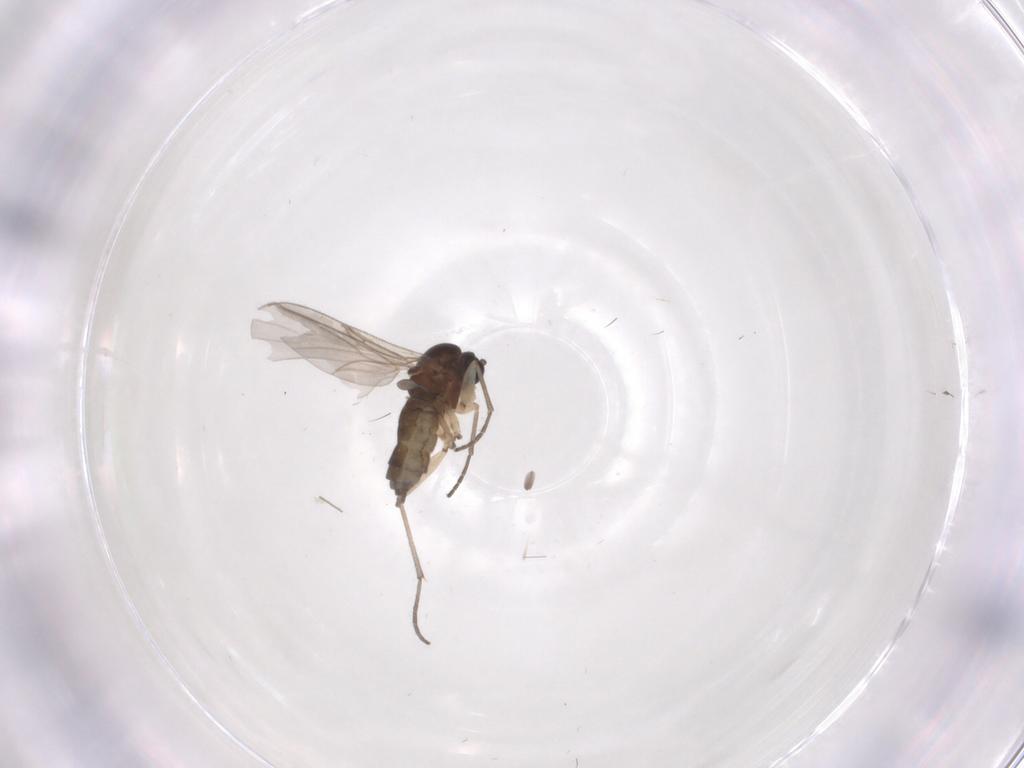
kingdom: Animalia
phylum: Arthropoda
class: Insecta
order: Diptera
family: Sciaridae
